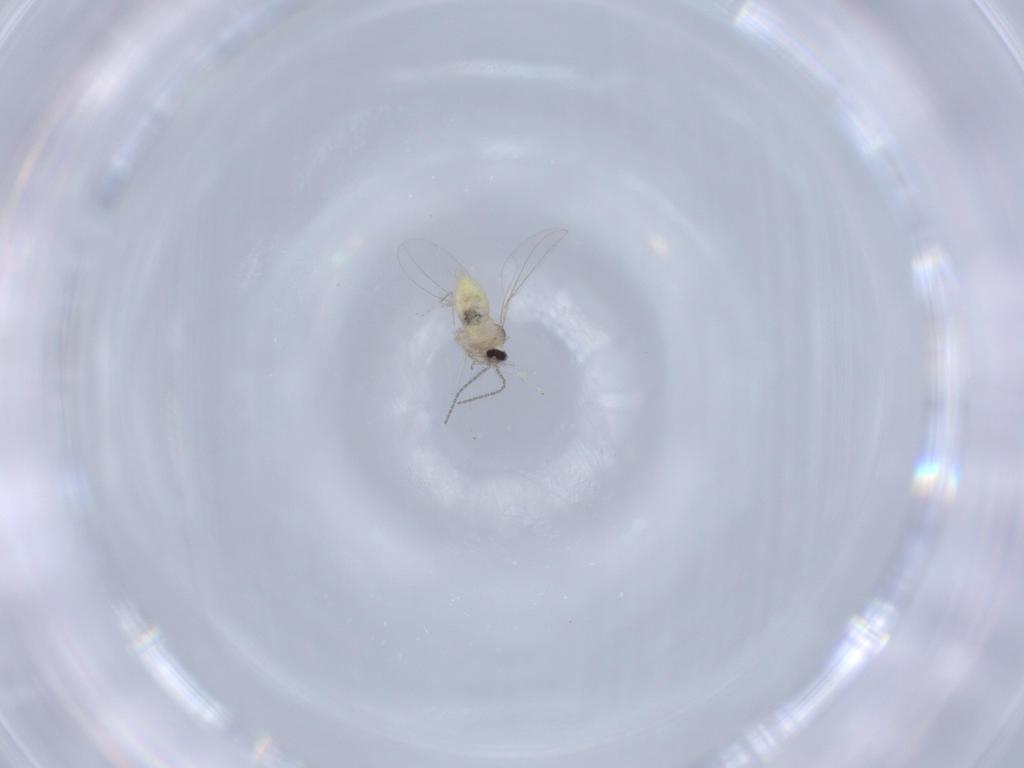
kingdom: Animalia
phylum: Arthropoda
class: Insecta
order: Diptera
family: Cecidomyiidae
